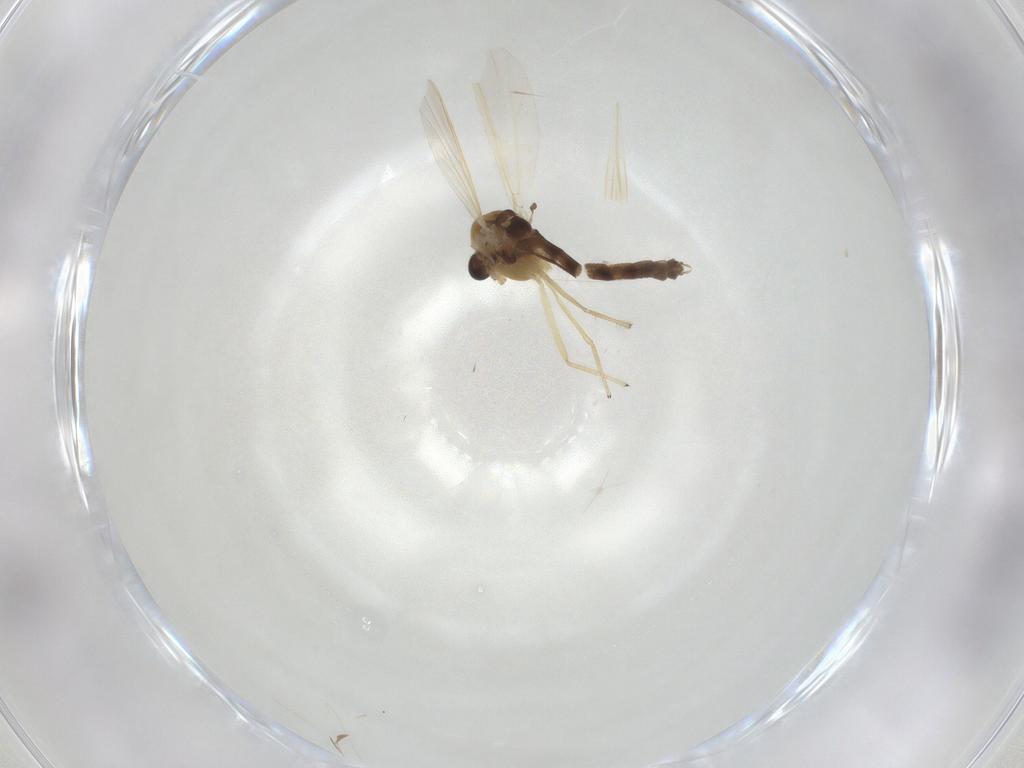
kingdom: Animalia
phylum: Arthropoda
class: Insecta
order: Diptera
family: Chironomidae
